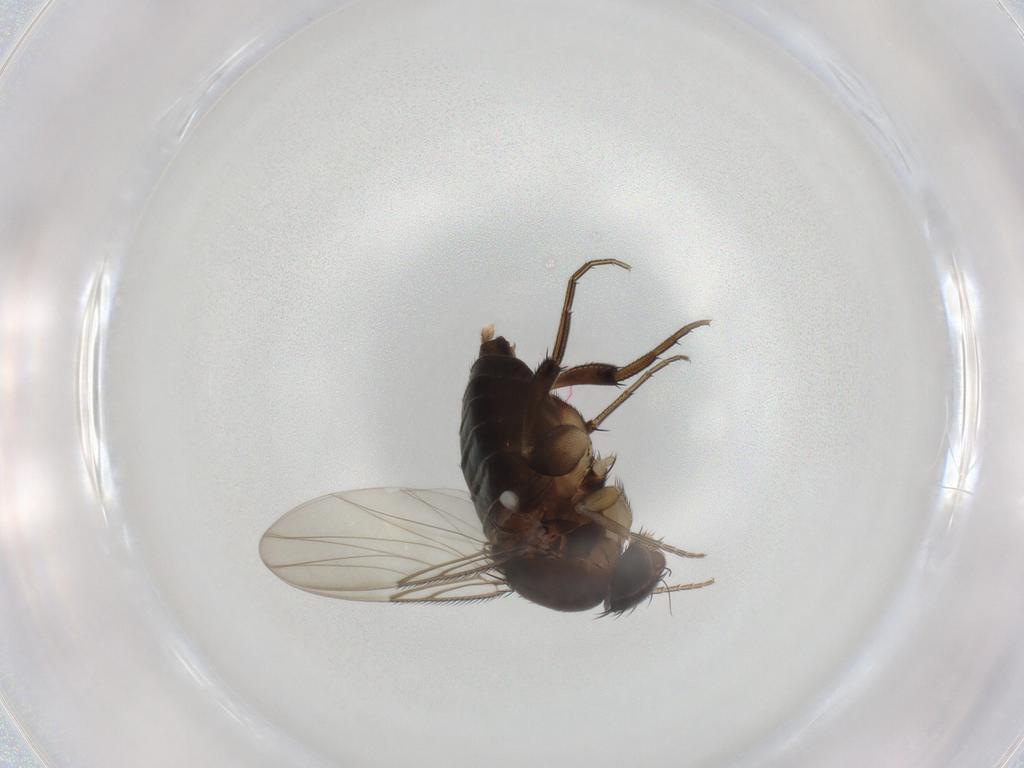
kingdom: Animalia
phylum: Arthropoda
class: Insecta
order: Diptera
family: Phoridae
